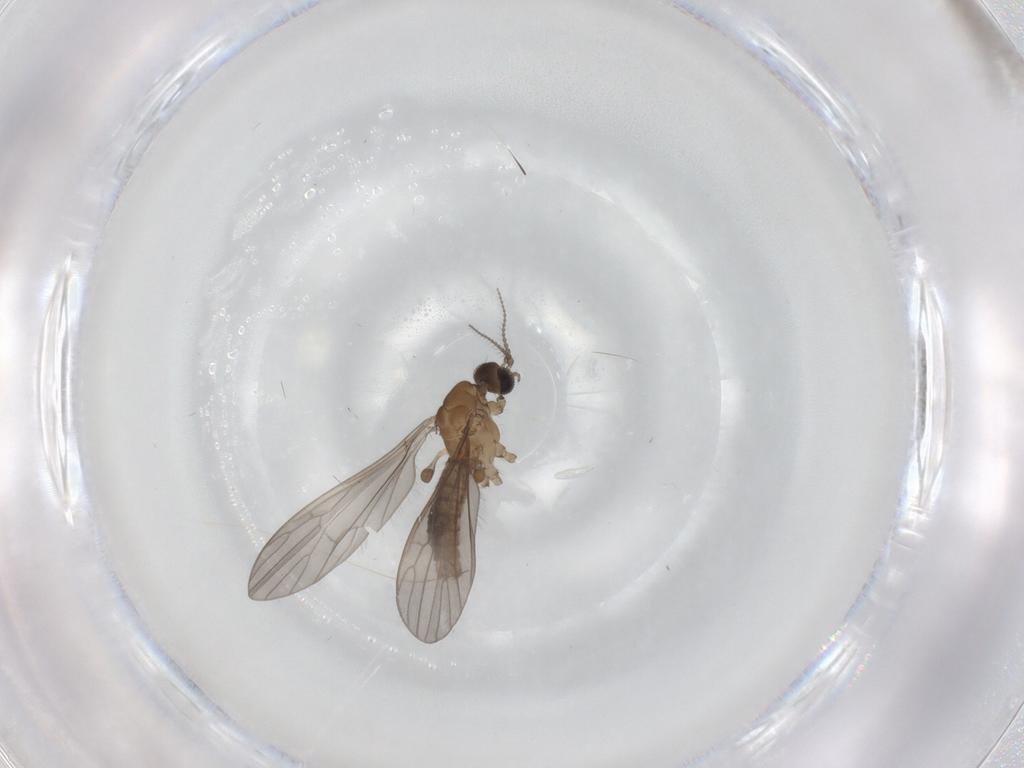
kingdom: Animalia
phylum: Arthropoda
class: Insecta
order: Diptera
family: Limoniidae
